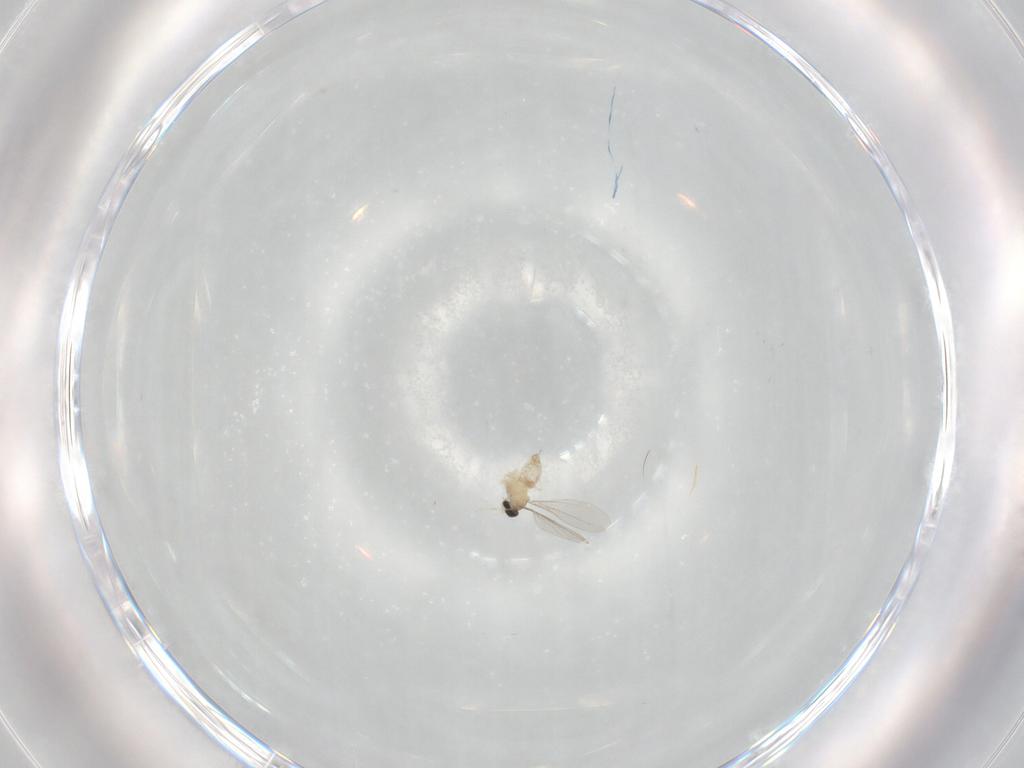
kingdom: Animalia
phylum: Arthropoda
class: Insecta
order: Diptera
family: Cecidomyiidae
